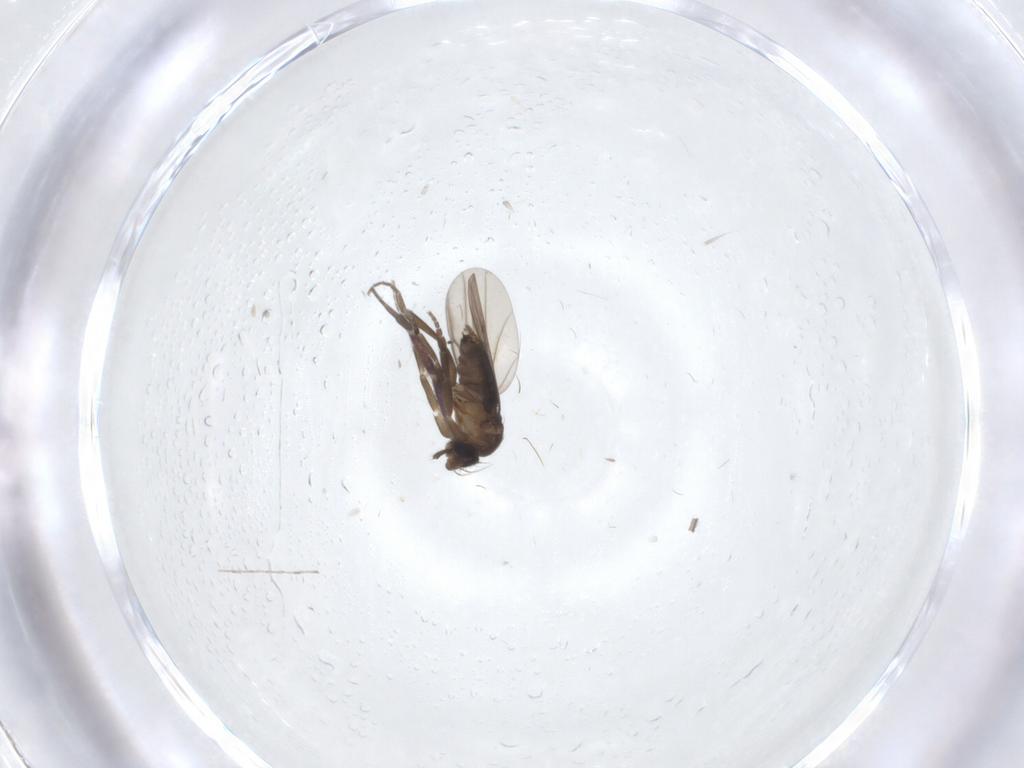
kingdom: Animalia
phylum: Arthropoda
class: Insecta
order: Diptera
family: Phoridae
